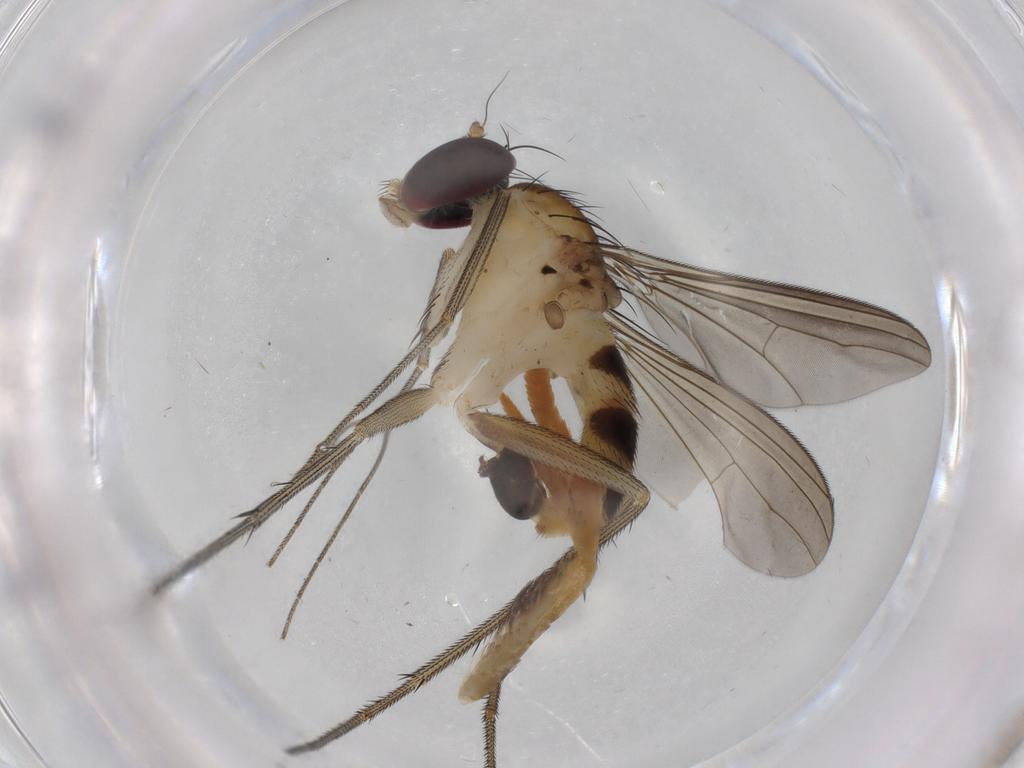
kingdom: Animalia
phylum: Arthropoda
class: Insecta
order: Diptera
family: Dolichopodidae
